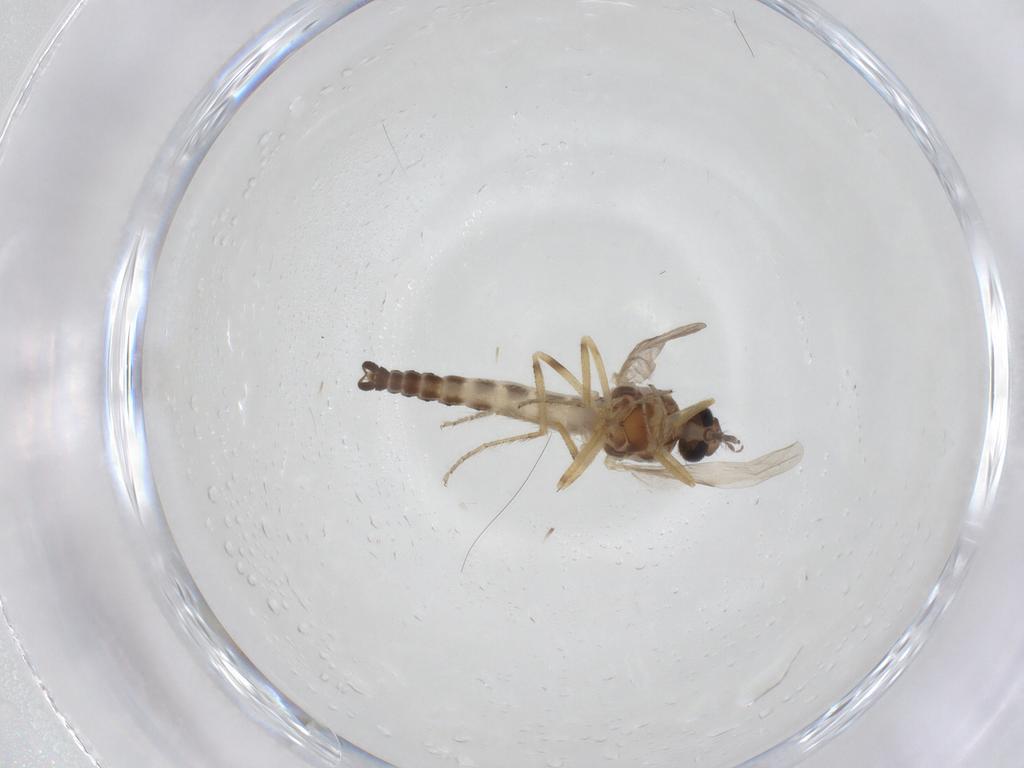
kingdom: Animalia
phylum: Arthropoda
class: Insecta
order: Diptera
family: Ceratopogonidae
